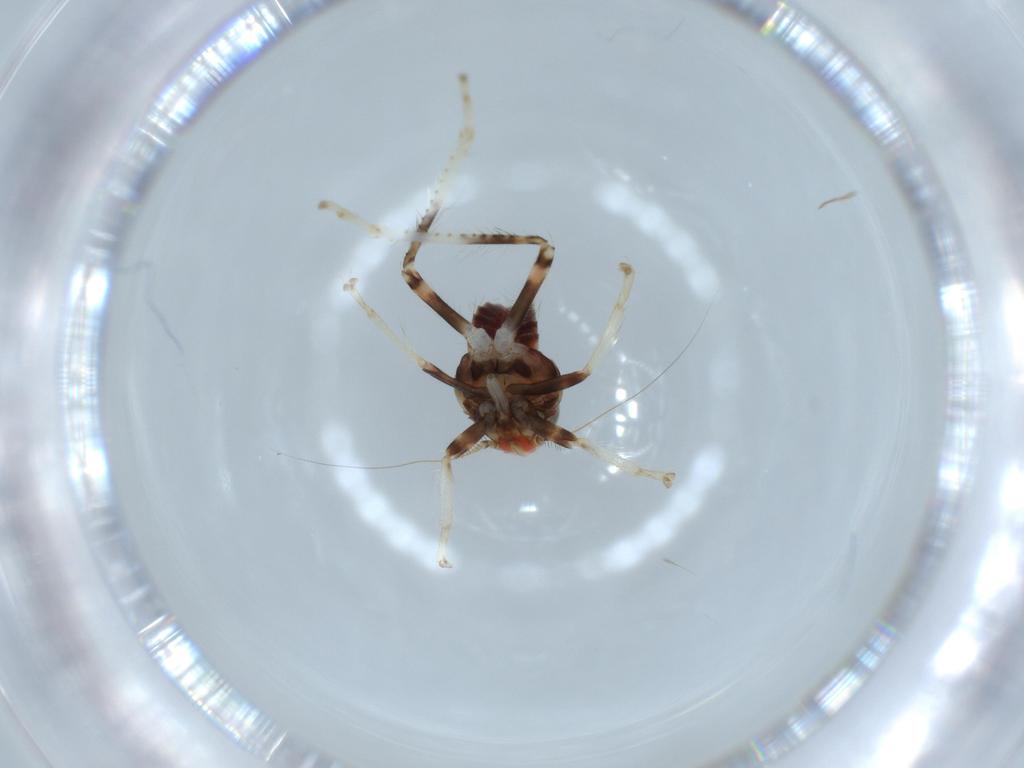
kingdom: Animalia
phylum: Arthropoda
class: Insecta
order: Hemiptera
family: Cicadellidae
